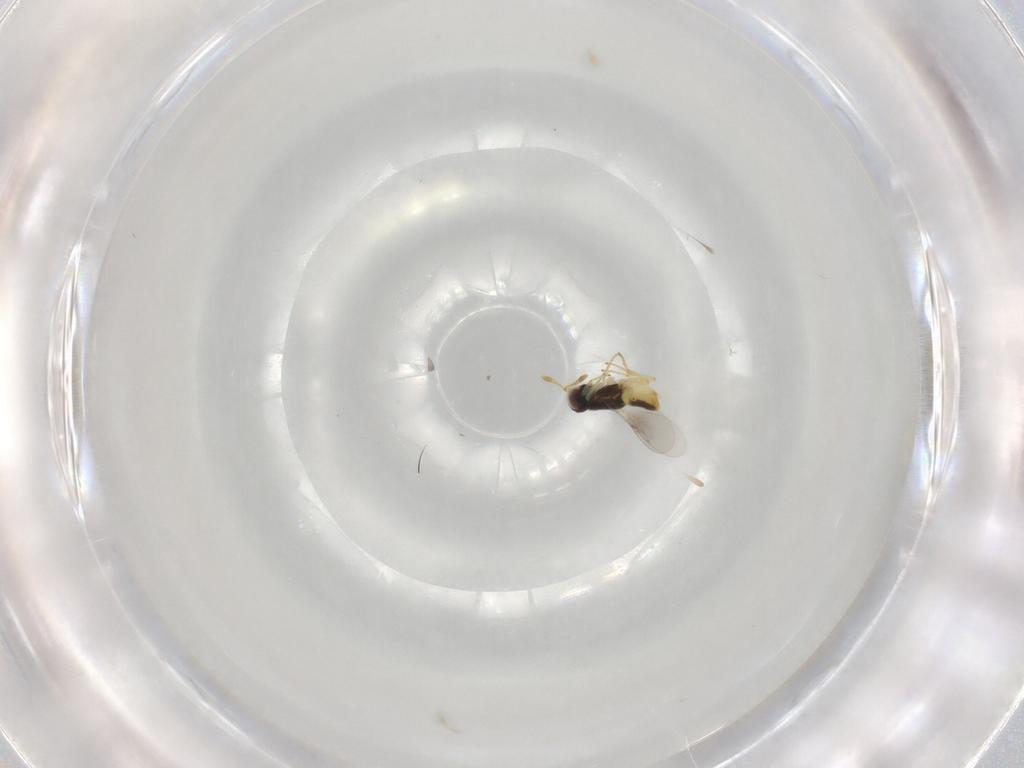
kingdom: Animalia
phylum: Arthropoda
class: Insecta
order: Hymenoptera
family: Encyrtidae
